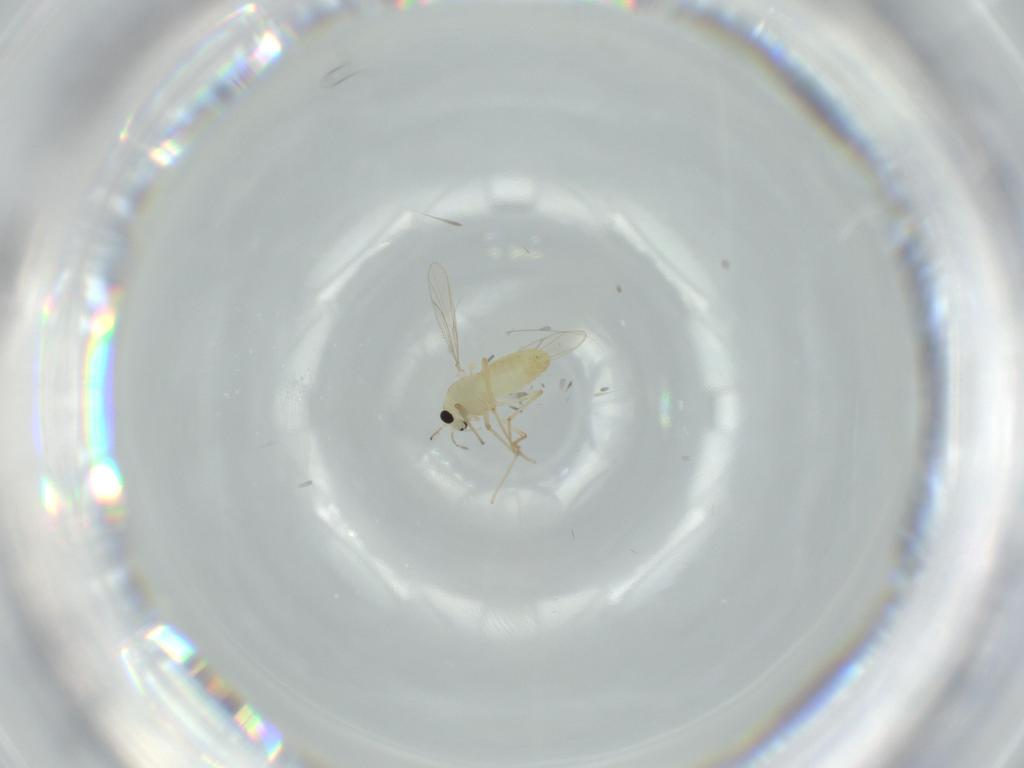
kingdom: Animalia
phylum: Arthropoda
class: Insecta
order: Diptera
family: Chironomidae
